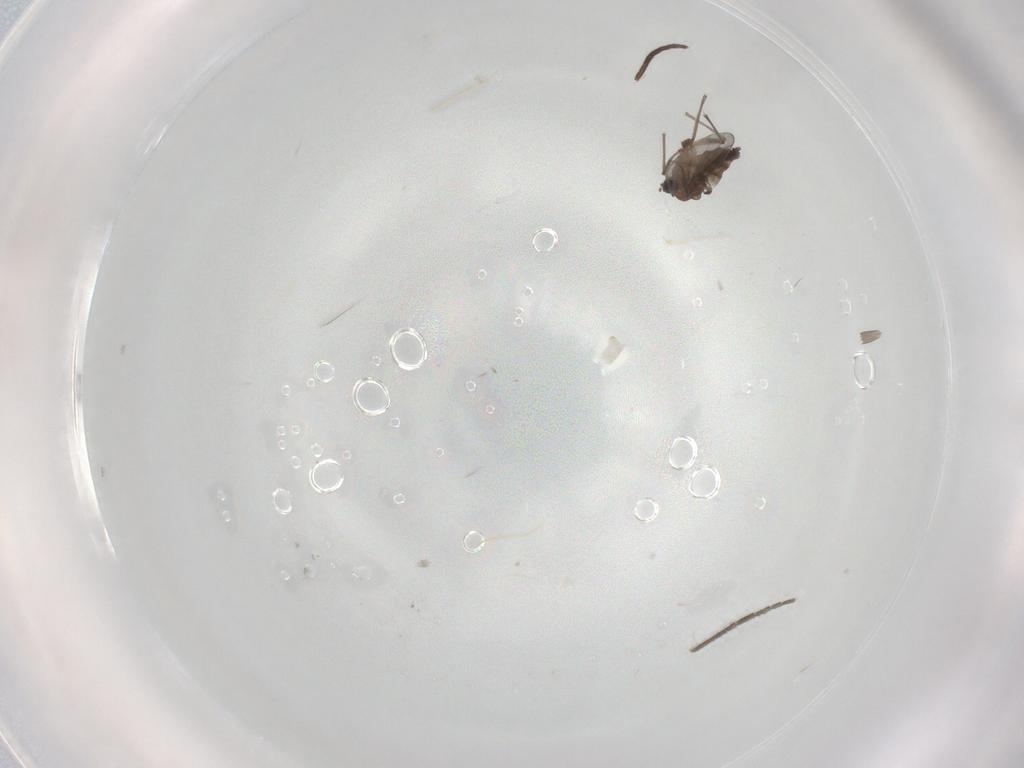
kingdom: Animalia
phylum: Arthropoda
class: Insecta
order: Diptera
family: Sciaridae
